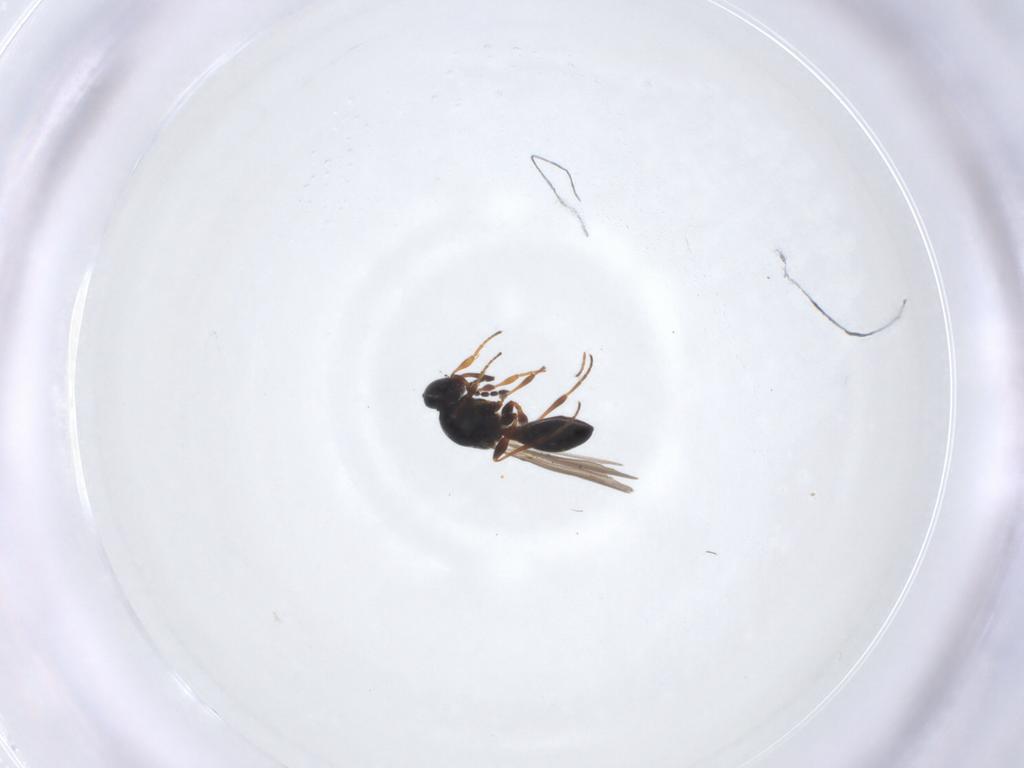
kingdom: Animalia
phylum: Arthropoda
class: Insecta
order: Hymenoptera
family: Platygastridae
